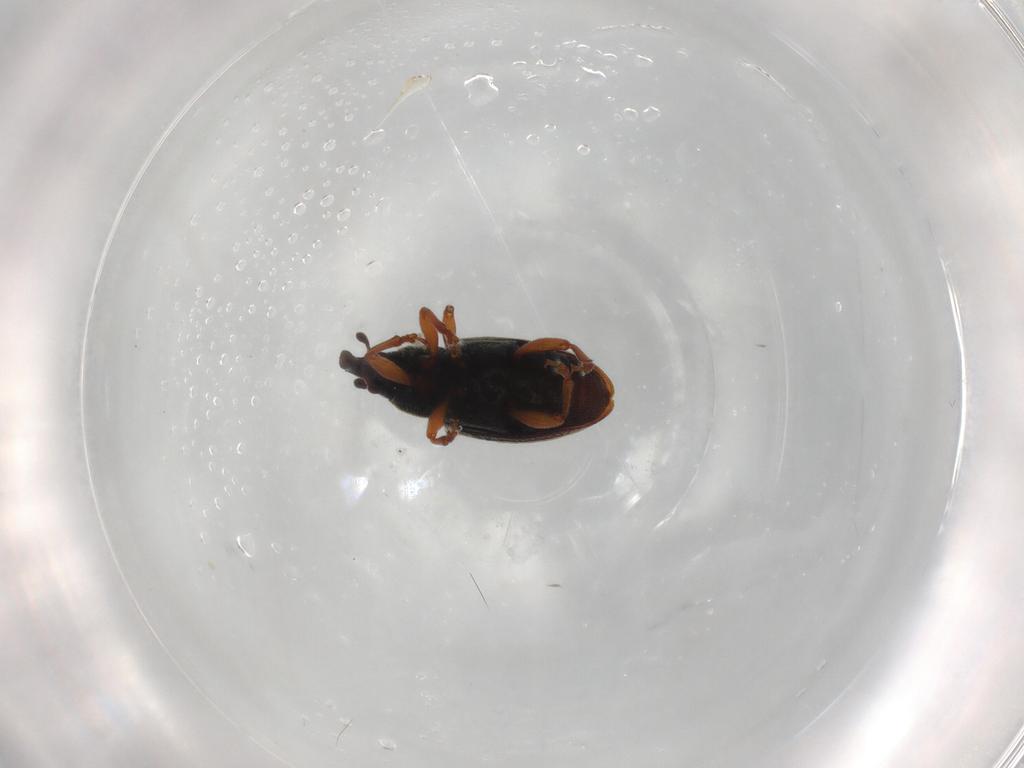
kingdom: Animalia
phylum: Arthropoda
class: Insecta
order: Coleoptera
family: Curculionidae
